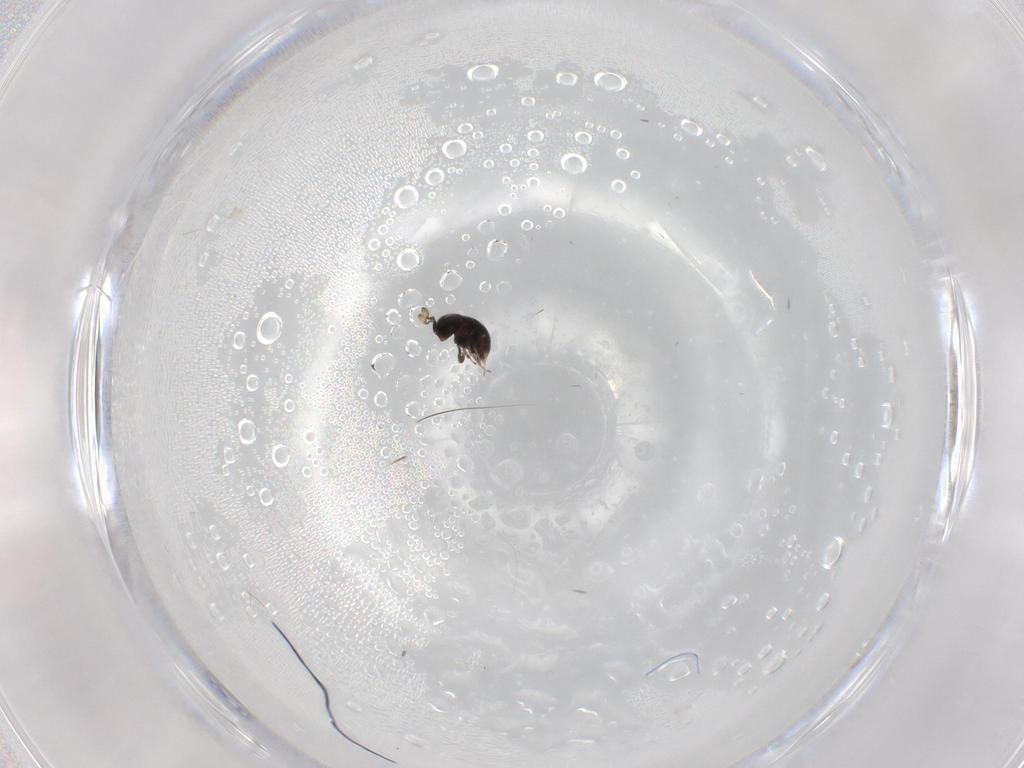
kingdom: Animalia
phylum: Arthropoda
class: Insecta
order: Hymenoptera
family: Scelionidae
